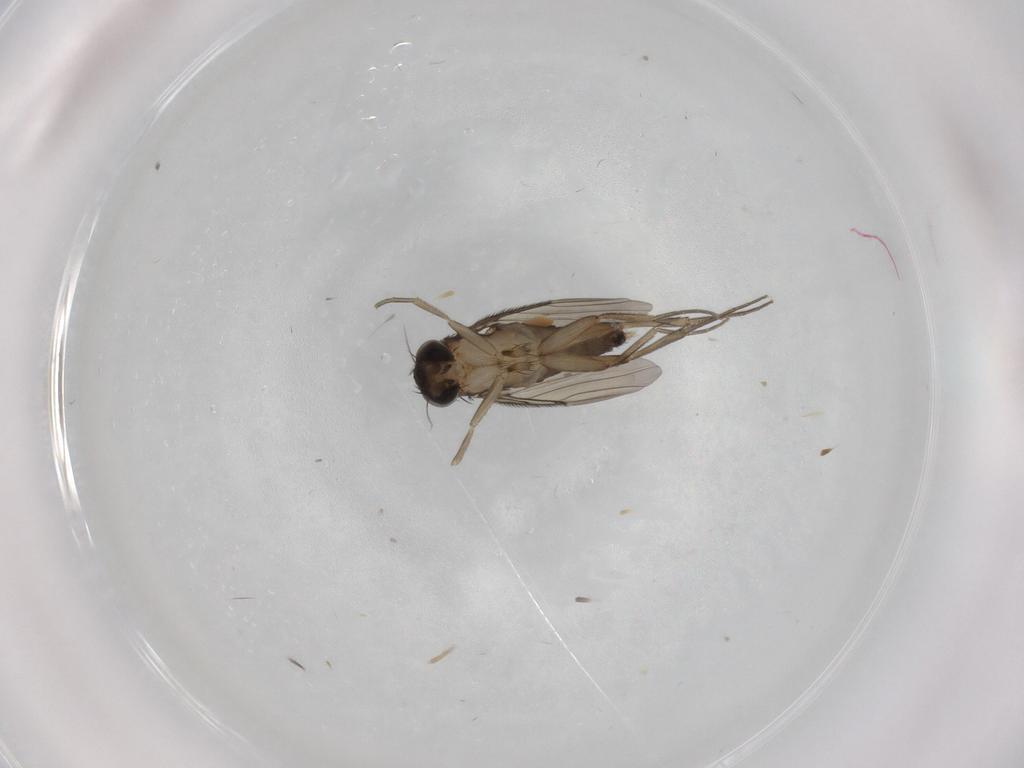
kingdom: Animalia
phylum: Arthropoda
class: Insecta
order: Diptera
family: Phoridae
